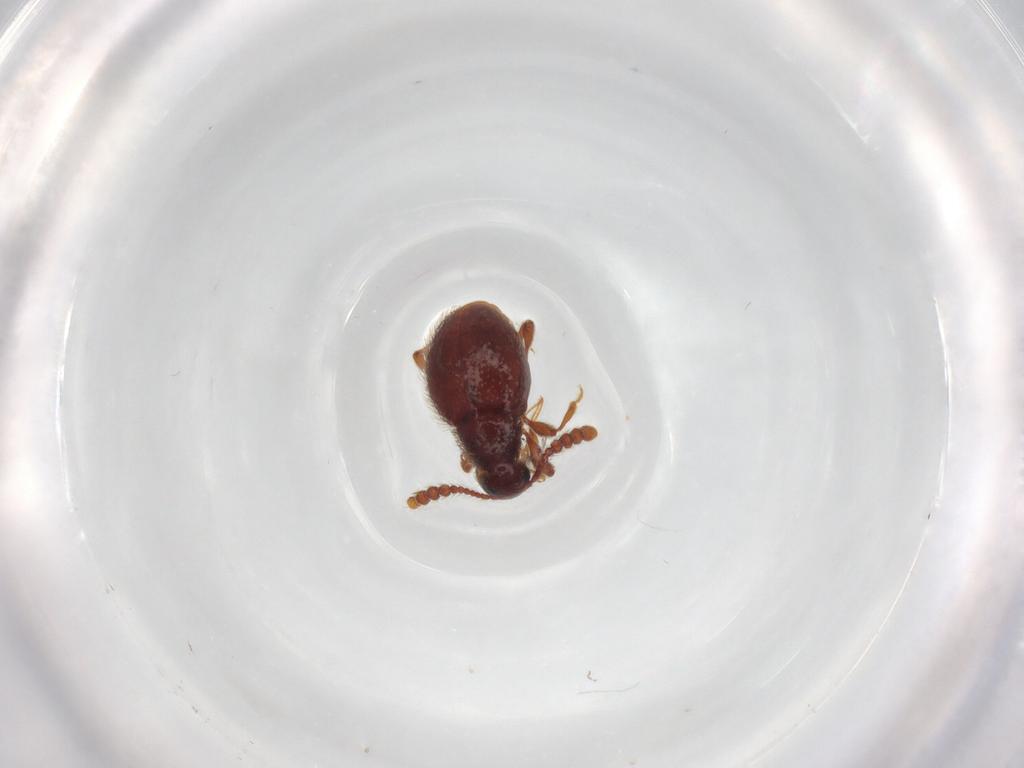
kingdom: Animalia
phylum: Arthropoda
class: Insecta
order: Coleoptera
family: Staphylinidae
